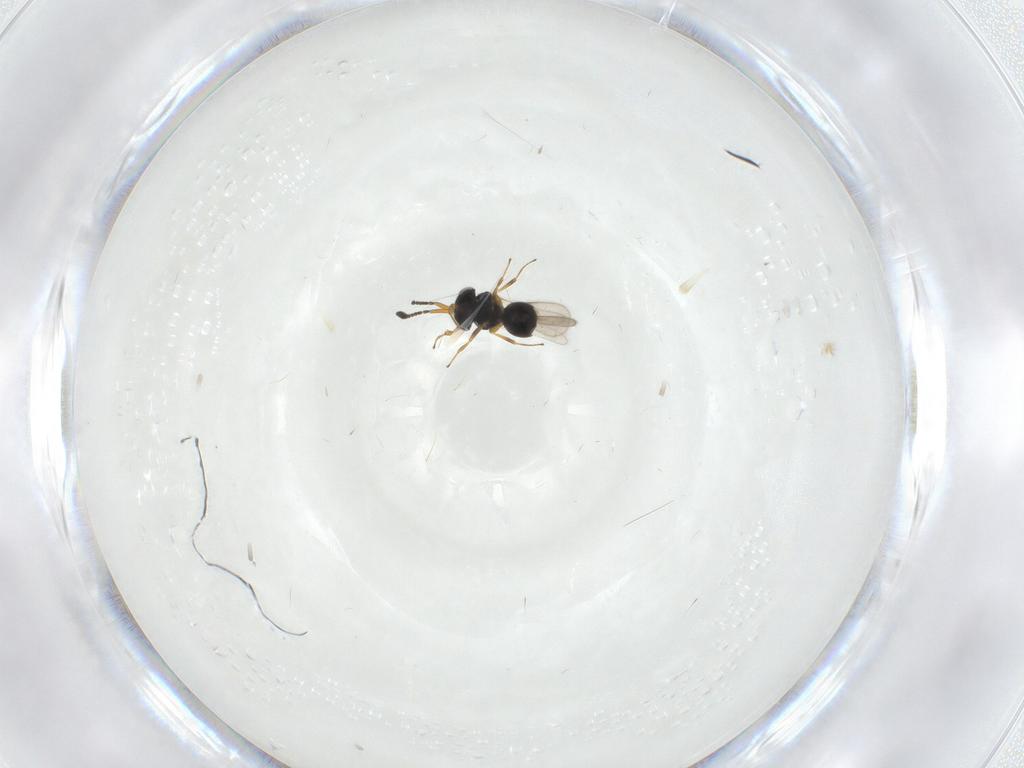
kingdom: Animalia
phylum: Arthropoda
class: Insecta
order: Hymenoptera
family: Scelionidae
